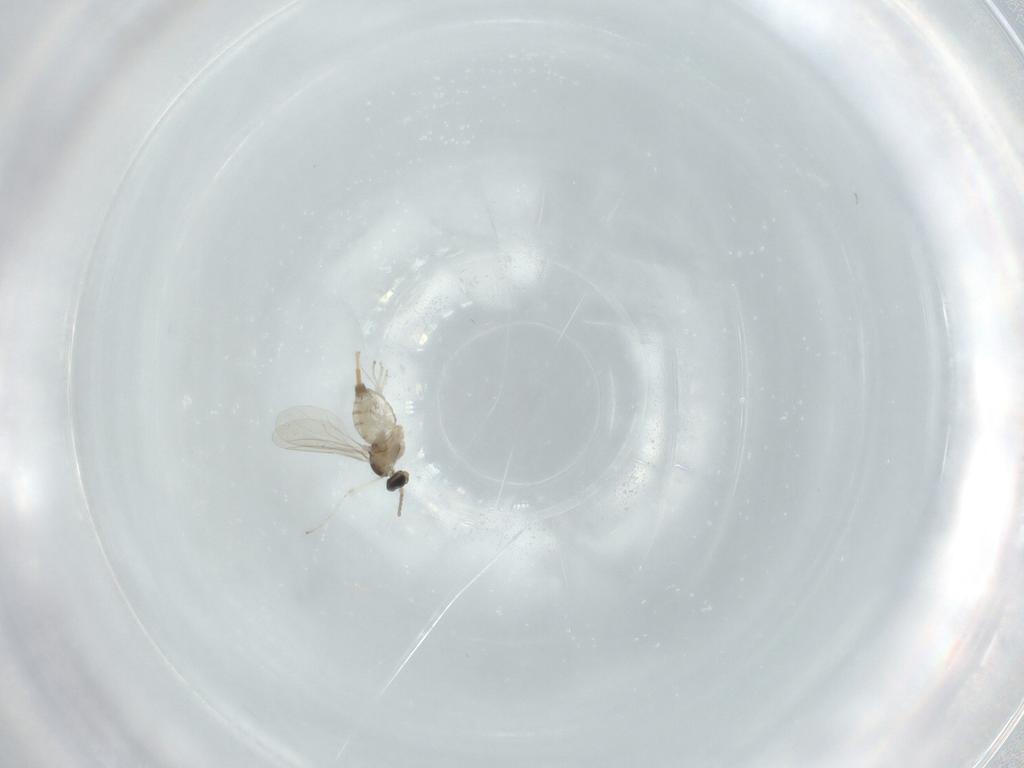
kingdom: Animalia
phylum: Arthropoda
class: Insecta
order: Diptera
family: Cecidomyiidae
